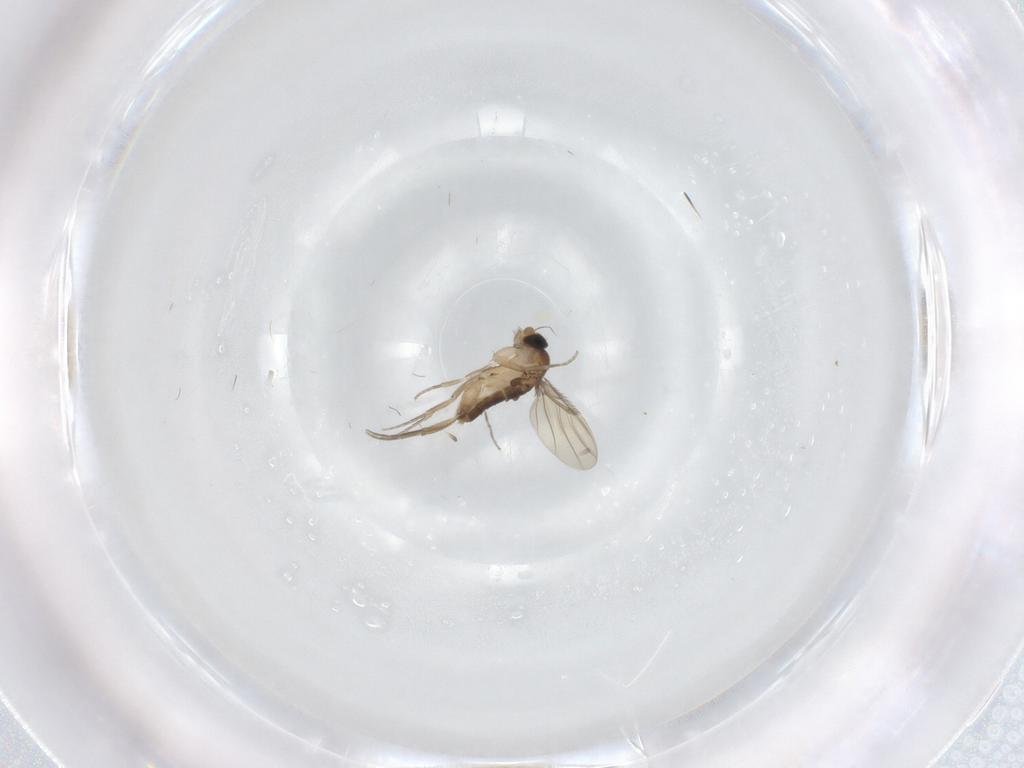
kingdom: Animalia
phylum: Arthropoda
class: Insecta
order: Diptera
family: Phoridae
